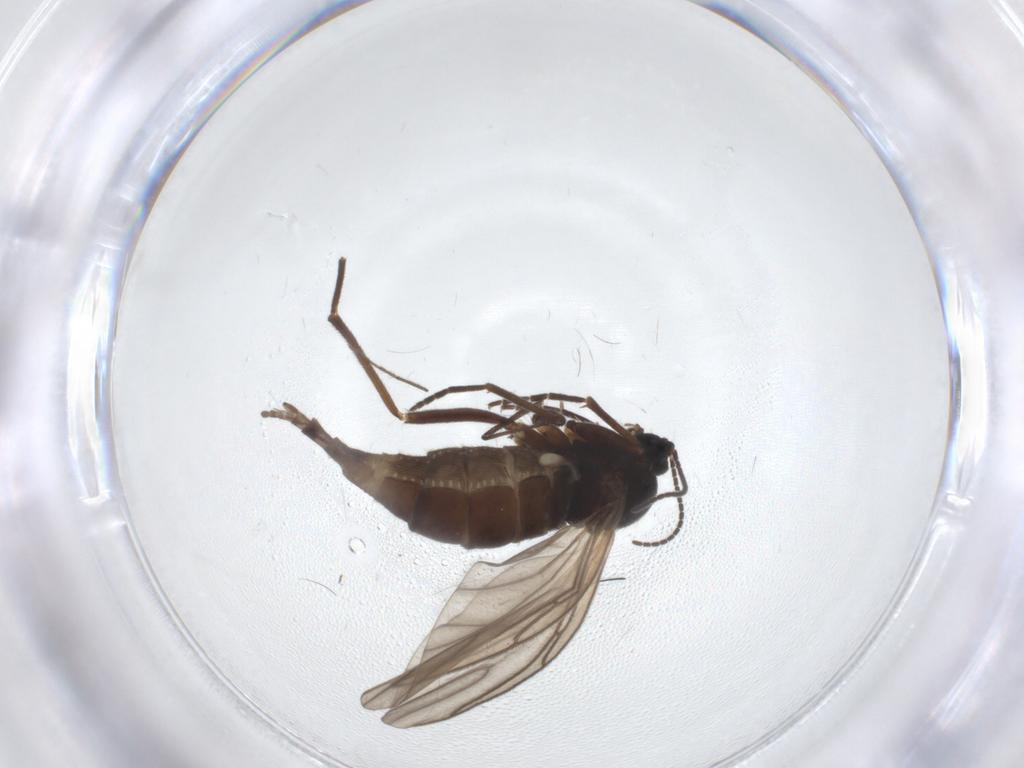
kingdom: Animalia
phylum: Arthropoda
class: Insecta
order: Diptera
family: Sciaridae
